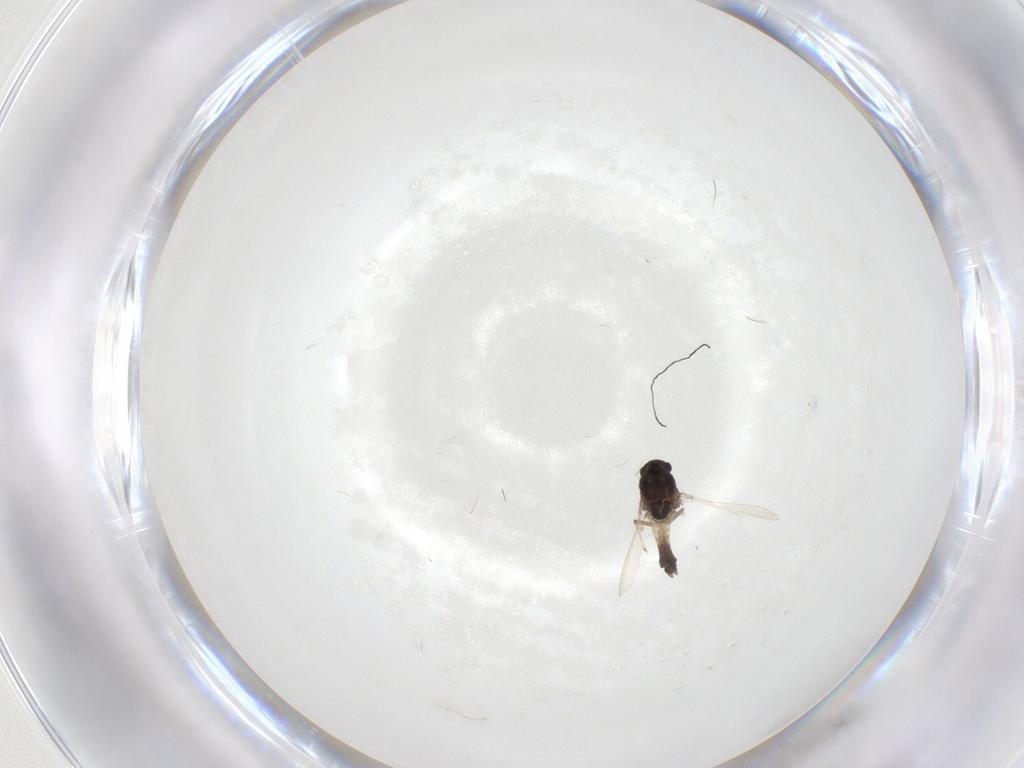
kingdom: Animalia
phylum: Arthropoda
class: Insecta
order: Diptera
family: Chironomidae
